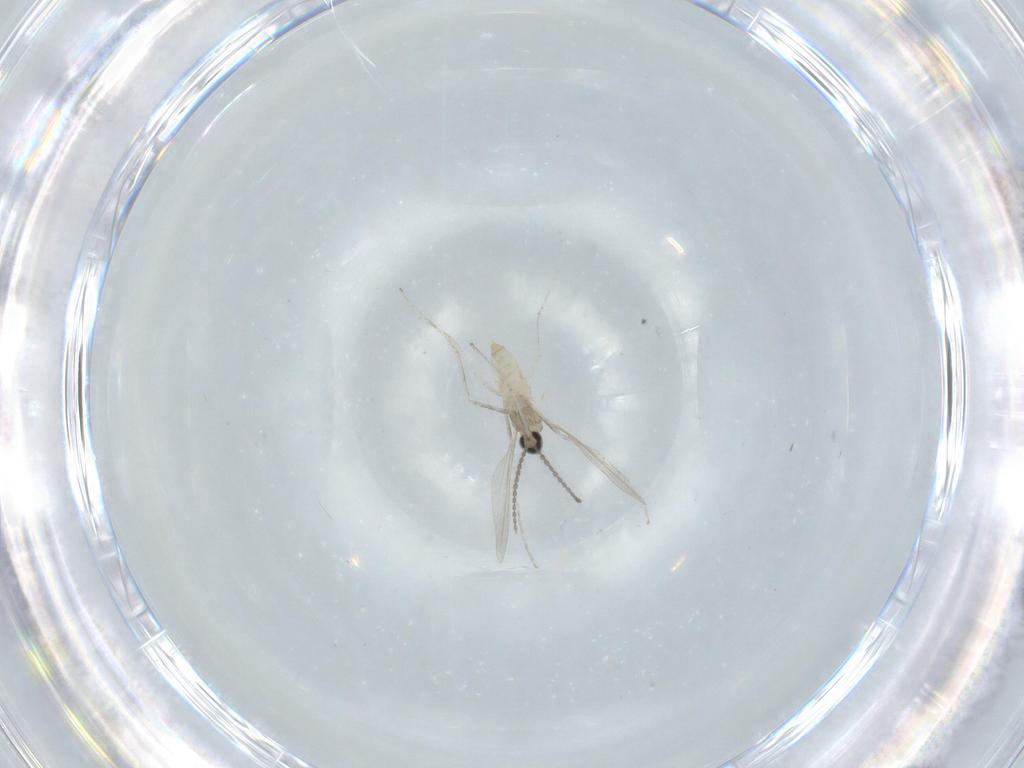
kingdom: Animalia
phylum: Arthropoda
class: Insecta
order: Diptera
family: Cecidomyiidae
